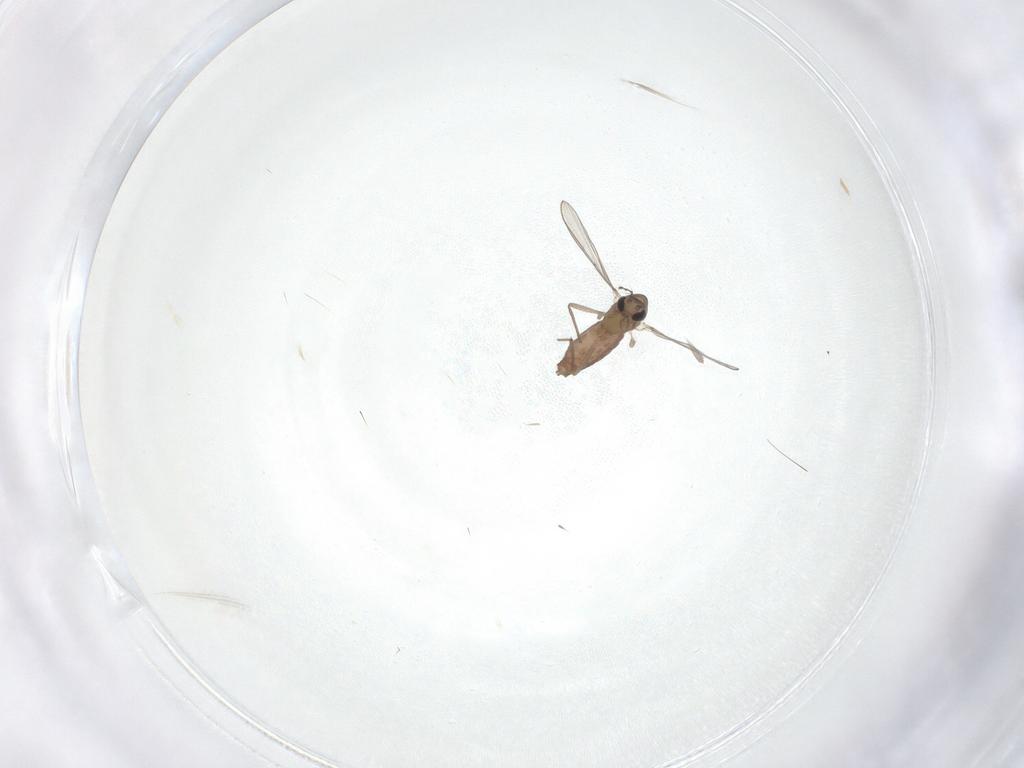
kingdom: Animalia
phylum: Arthropoda
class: Insecta
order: Diptera
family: Chironomidae
